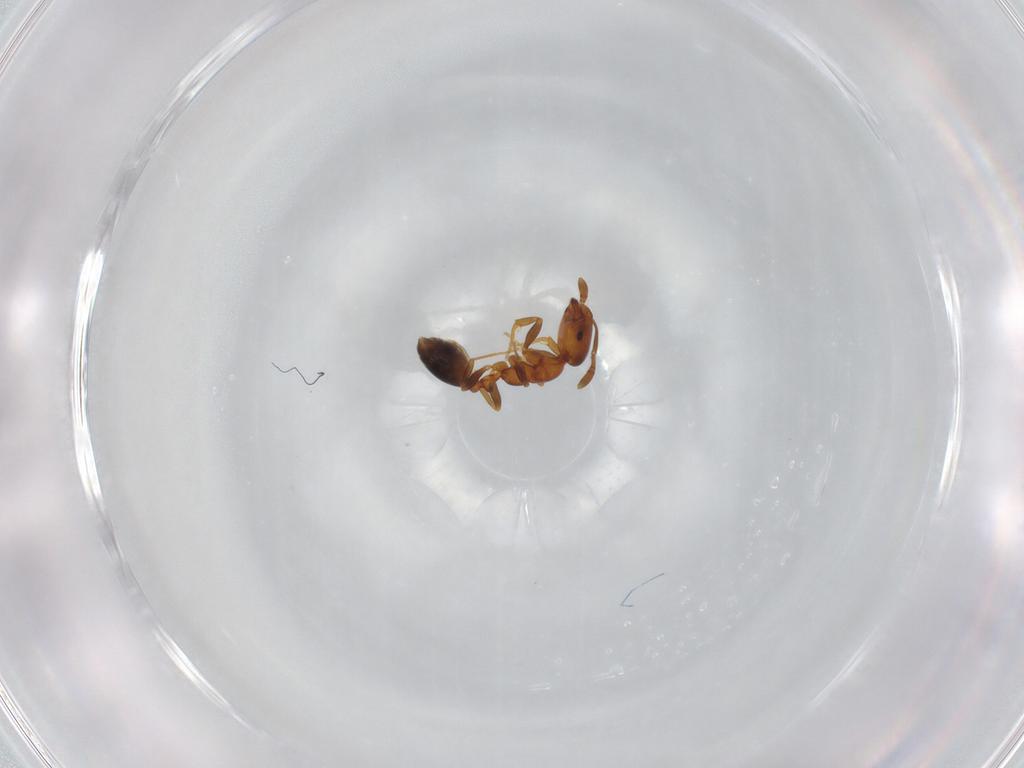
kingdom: Animalia
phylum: Arthropoda
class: Insecta
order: Hymenoptera
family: Formicidae
